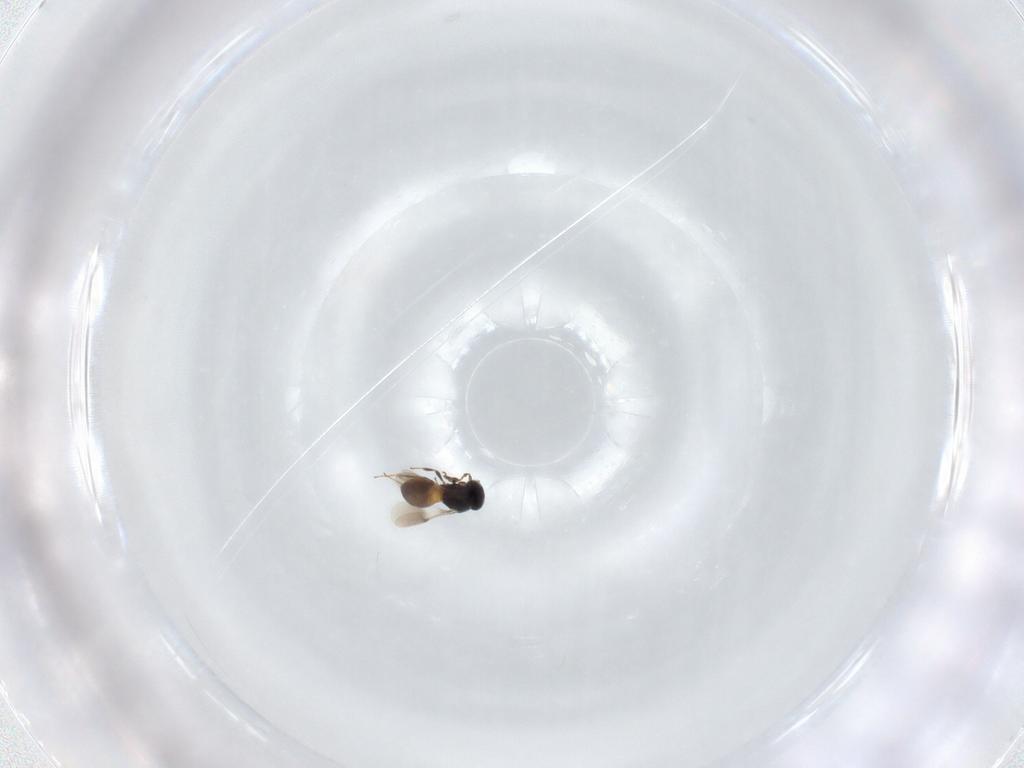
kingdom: Animalia
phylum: Arthropoda
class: Insecta
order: Hymenoptera
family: Scelionidae
